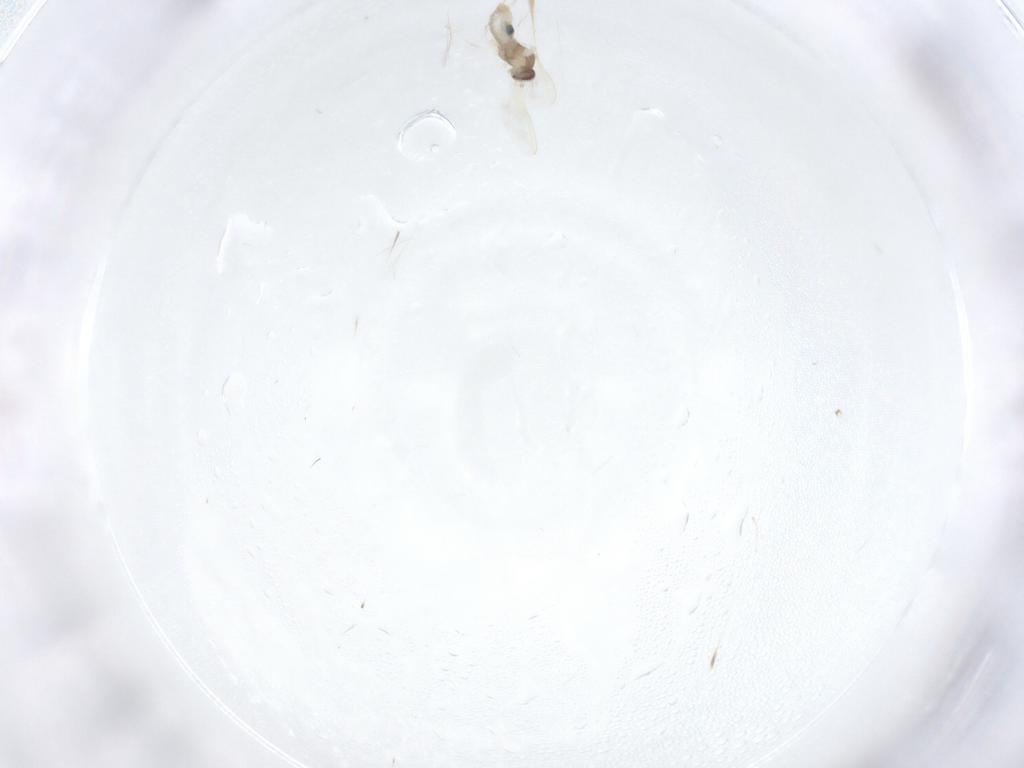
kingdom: Animalia
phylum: Arthropoda
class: Insecta
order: Diptera
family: Cecidomyiidae
